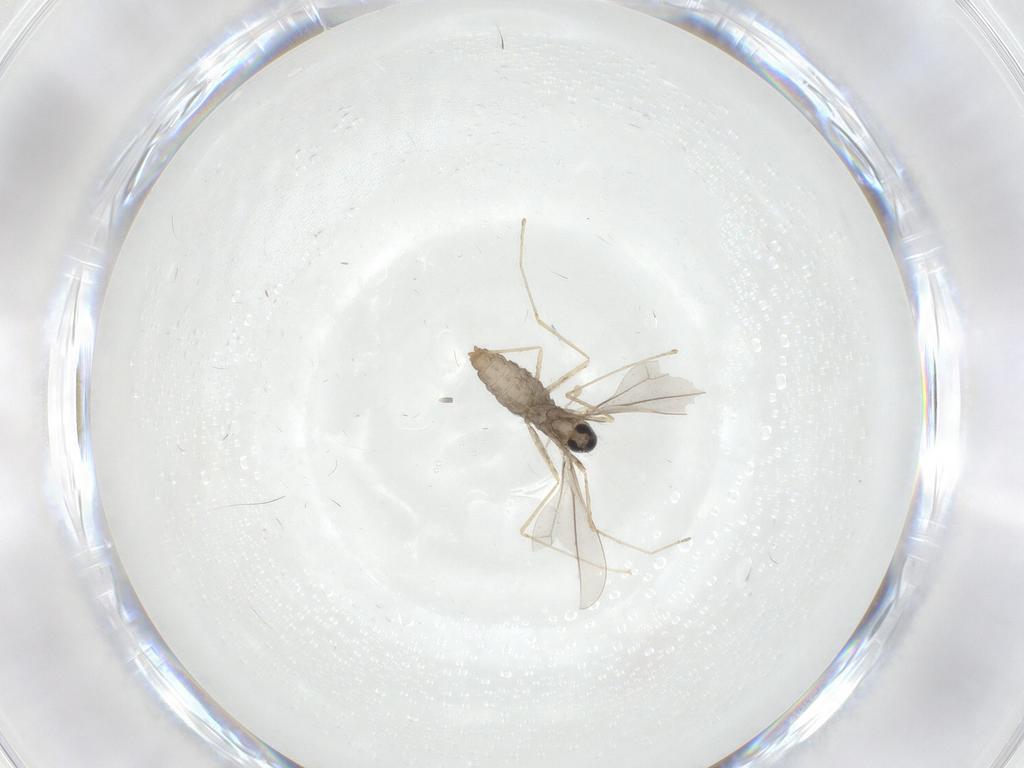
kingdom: Animalia
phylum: Arthropoda
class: Insecta
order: Diptera
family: Cecidomyiidae
